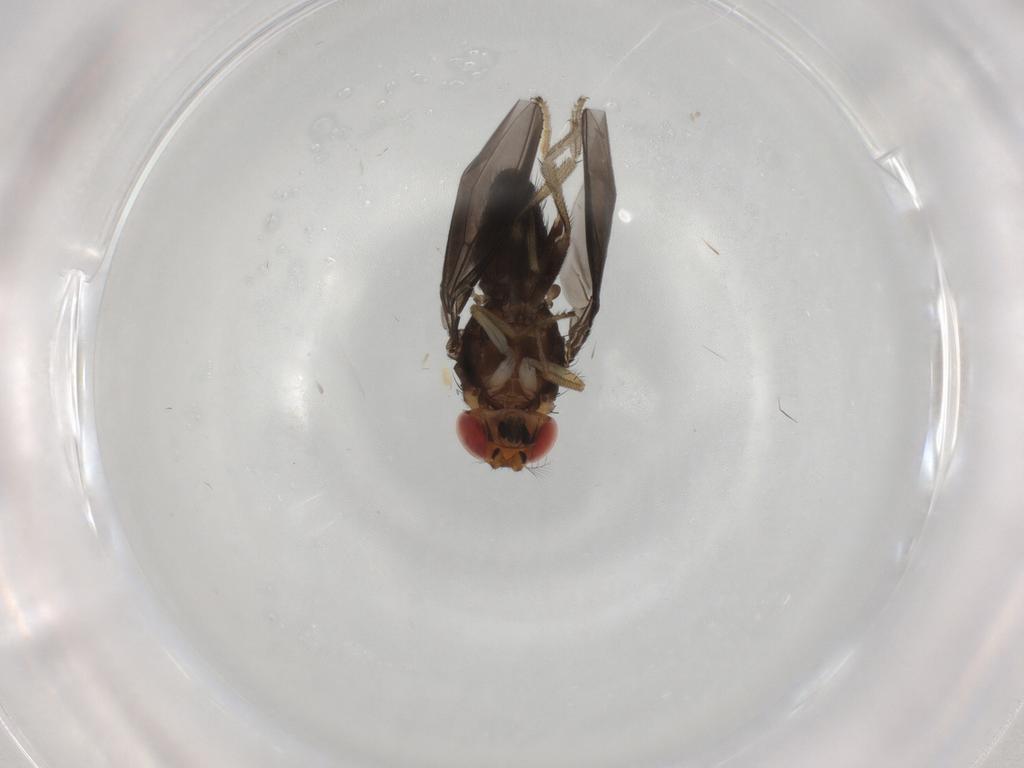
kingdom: Animalia
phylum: Arthropoda
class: Insecta
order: Diptera
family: Drosophilidae
